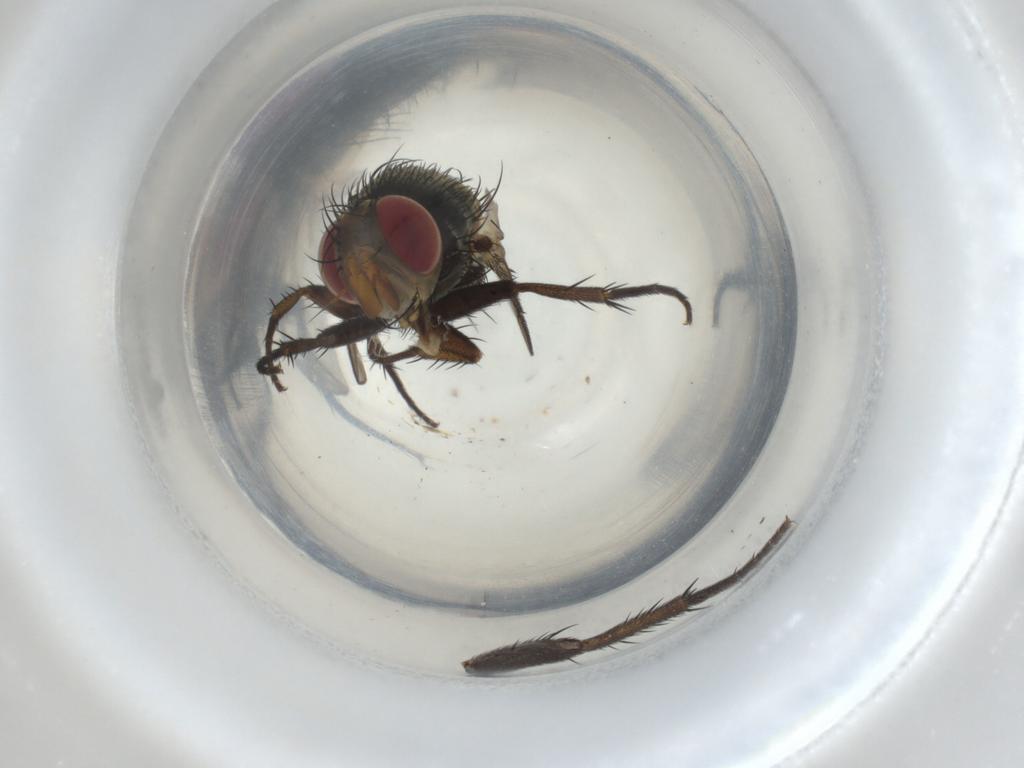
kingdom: Animalia
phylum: Arthropoda
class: Insecta
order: Diptera
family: Tachinidae
